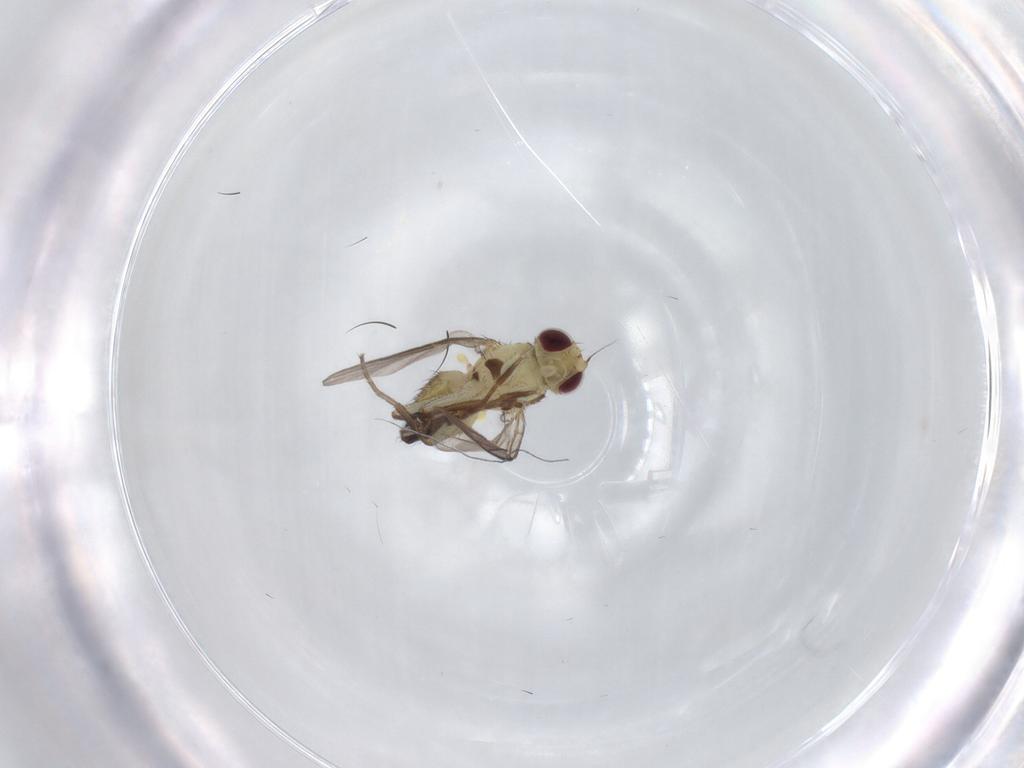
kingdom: Animalia
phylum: Arthropoda
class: Insecta
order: Diptera
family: Agromyzidae
